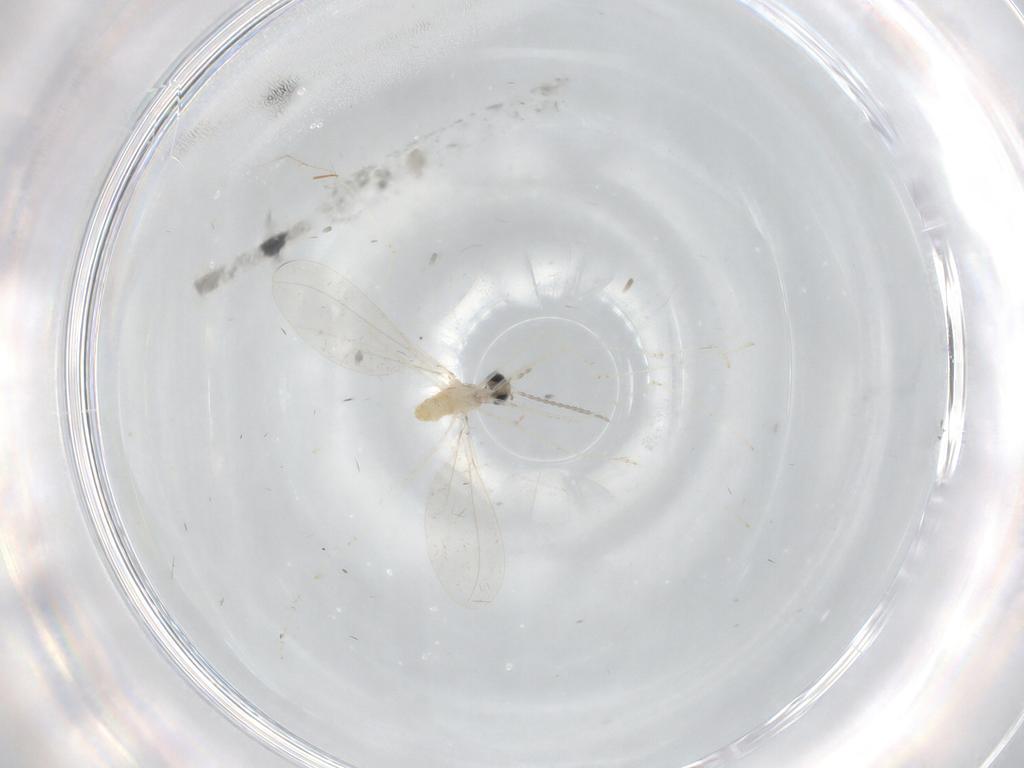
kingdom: Animalia
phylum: Arthropoda
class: Insecta
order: Diptera
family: Cecidomyiidae
